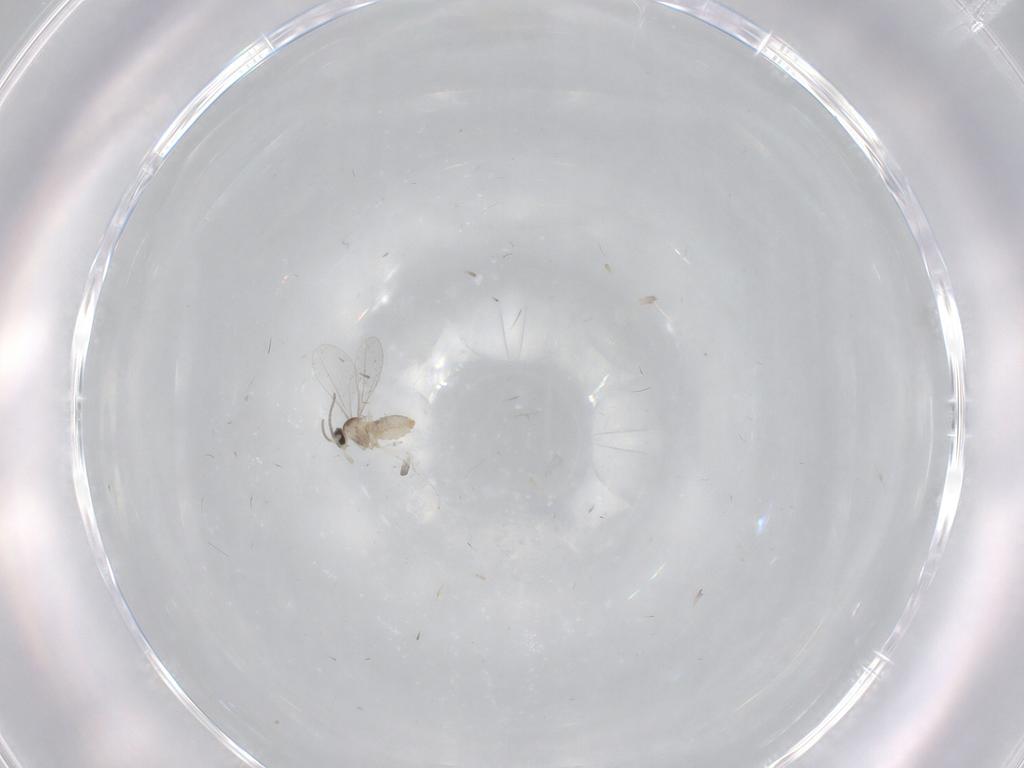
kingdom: Animalia
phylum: Arthropoda
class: Insecta
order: Diptera
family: Cecidomyiidae
